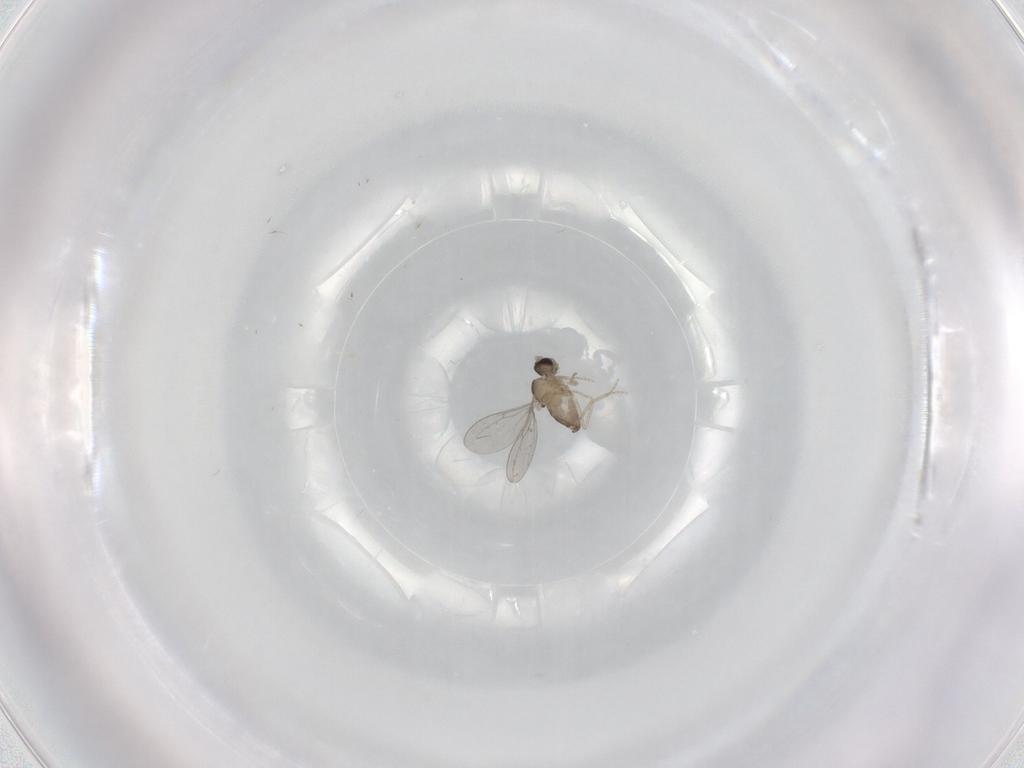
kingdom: Animalia
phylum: Arthropoda
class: Insecta
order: Diptera
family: Cecidomyiidae
